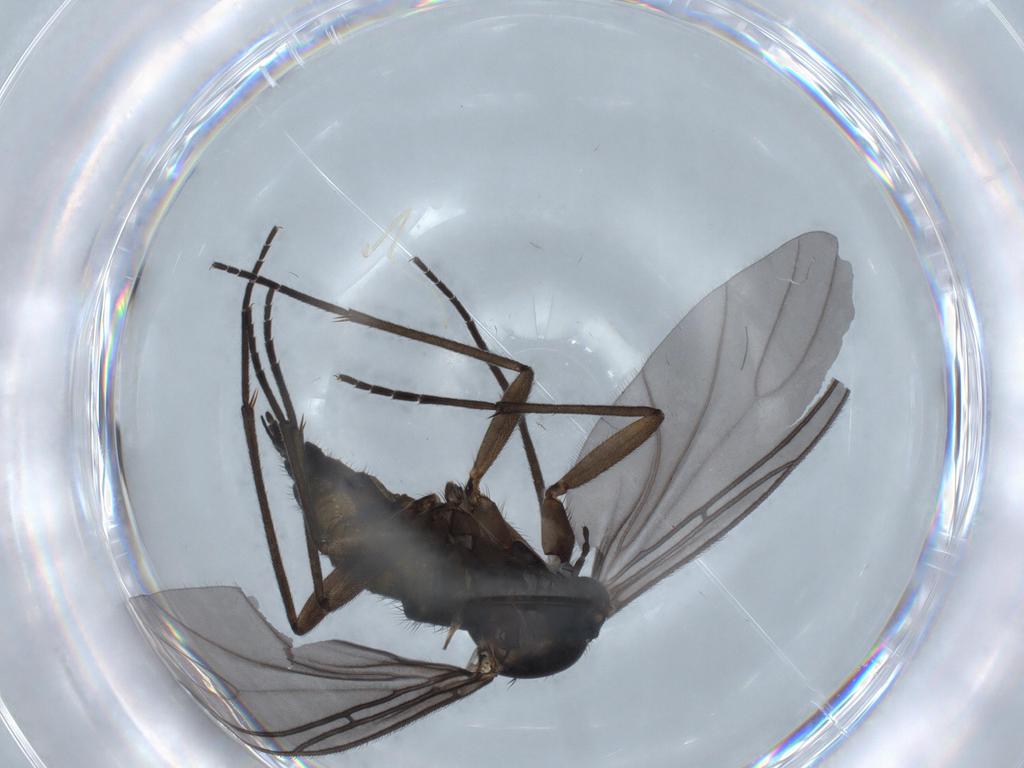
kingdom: Animalia
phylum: Arthropoda
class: Insecta
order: Diptera
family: Sciaridae
